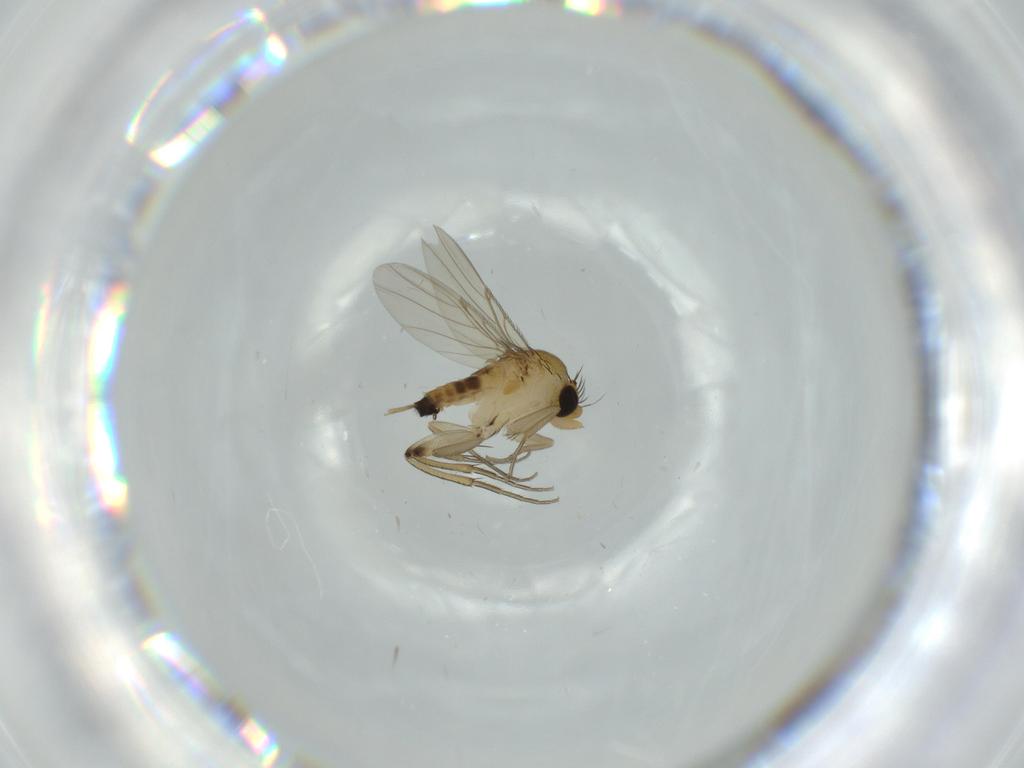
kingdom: Animalia
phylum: Arthropoda
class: Insecta
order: Diptera
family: Phoridae
